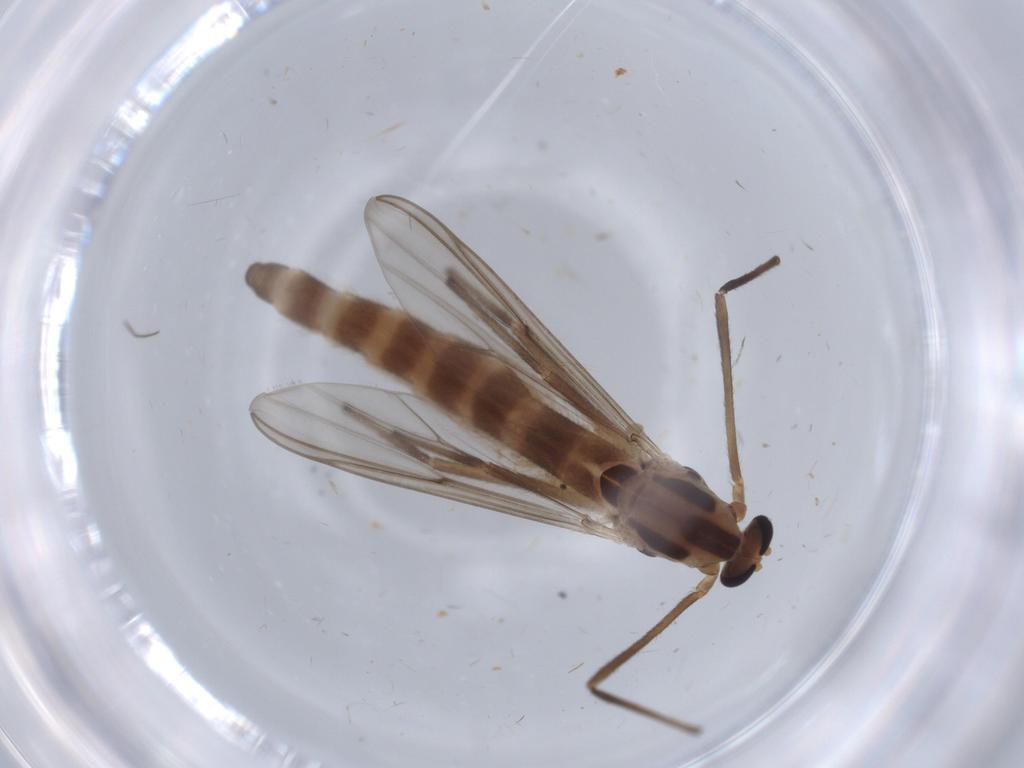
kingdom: Animalia
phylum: Arthropoda
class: Insecta
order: Diptera
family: Chironomidae
